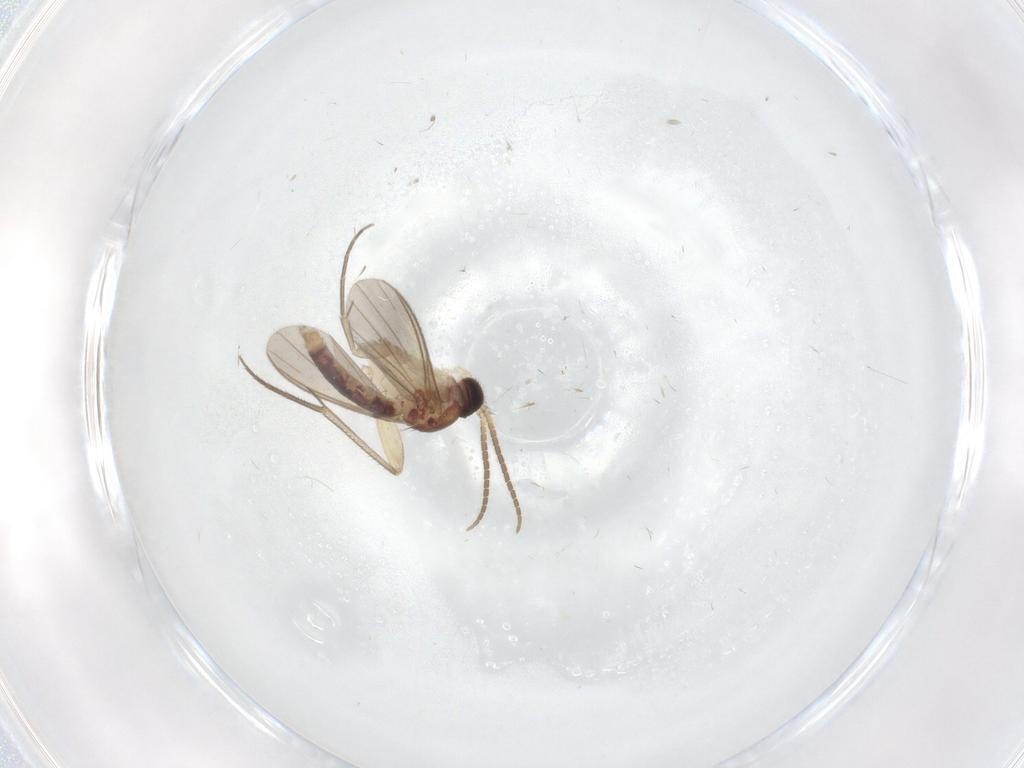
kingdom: Animalia
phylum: Arthropoda
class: Insecta
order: Diptera
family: Mycetophilidae
